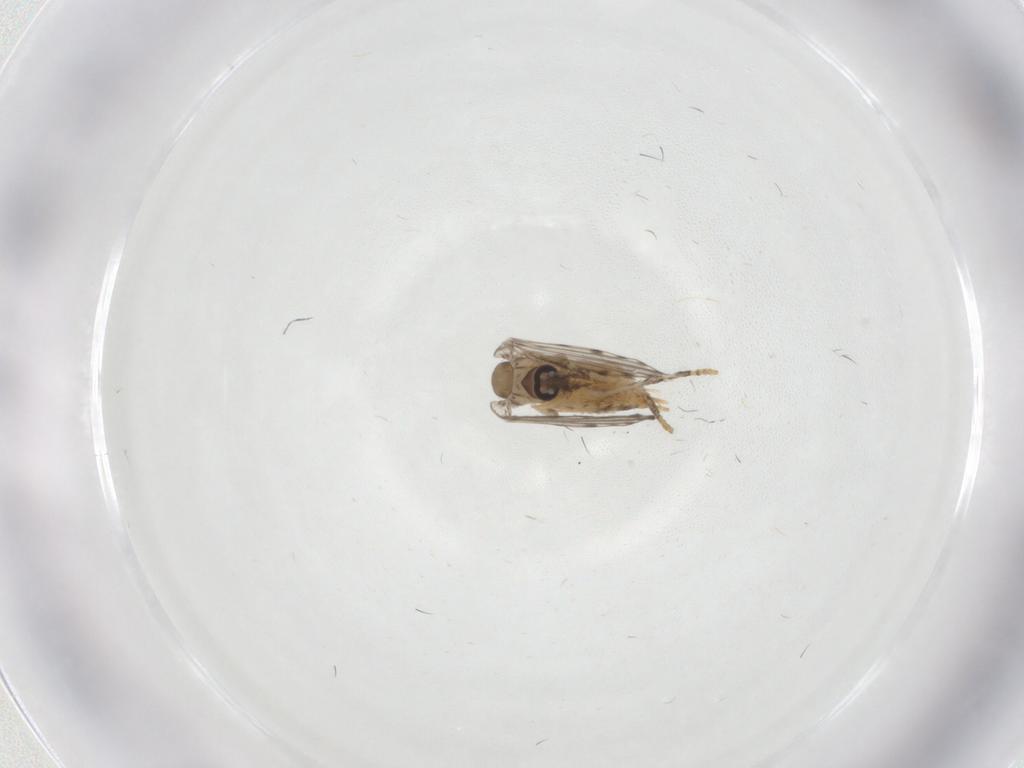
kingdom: Animalia
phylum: Arthropoda
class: Insecta
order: Diptera
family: Psychodidae
